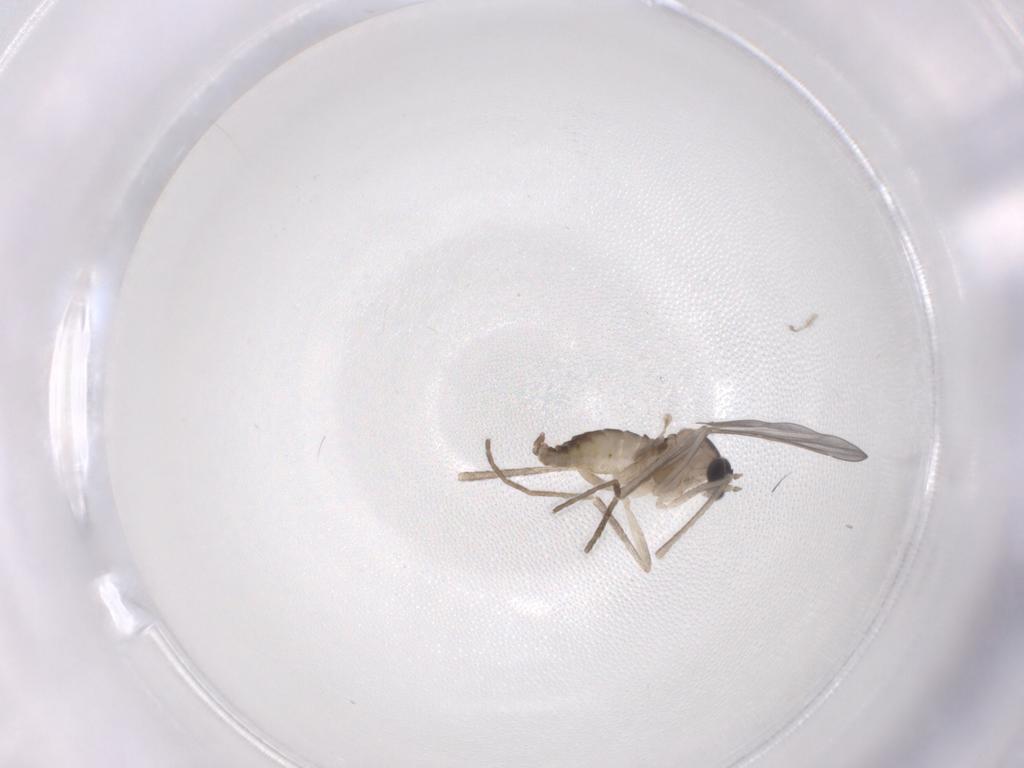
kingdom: Animalia
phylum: Arthropoda
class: Insecta
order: Diptera
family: Cecidomyiidae
